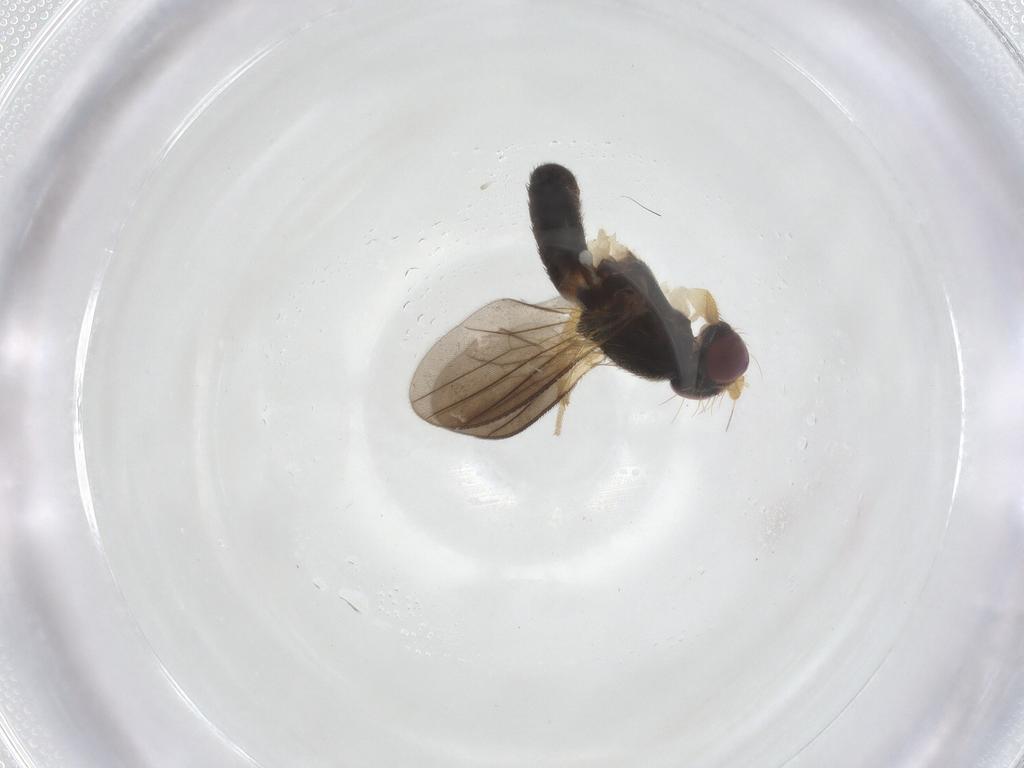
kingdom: Animalia
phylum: Arthropoda
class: Insecta
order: Diptera
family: Clusiidae
